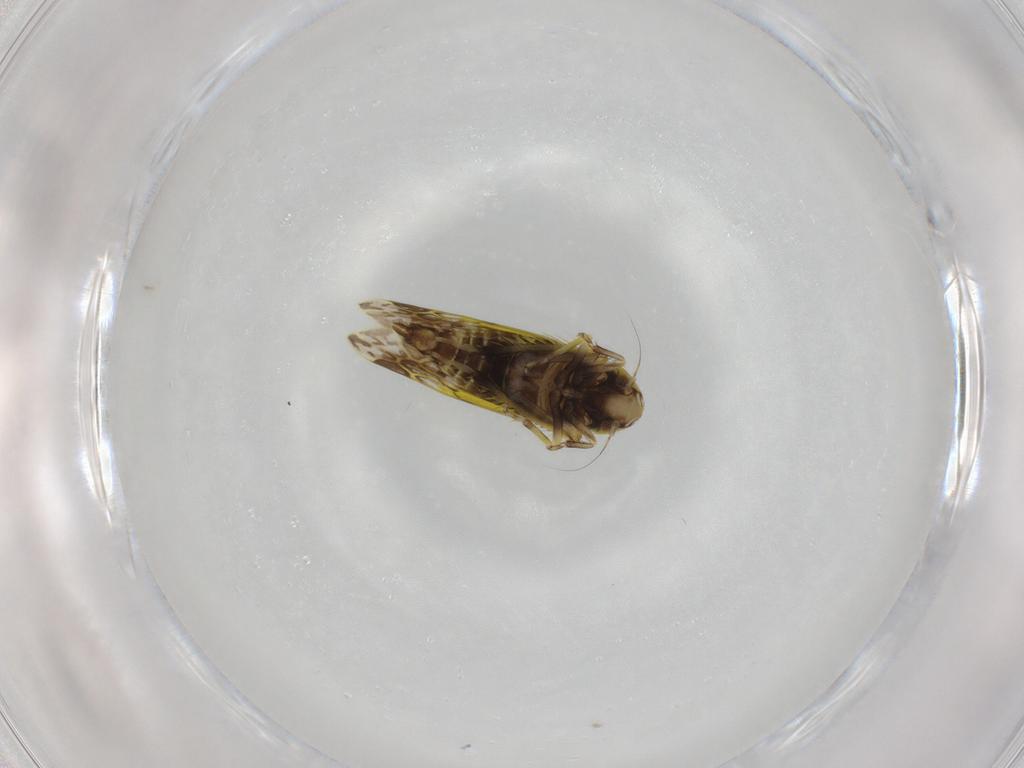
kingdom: Animalia
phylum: Arthropoda
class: Insecta
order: Hemiptera
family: Cicadellidae
